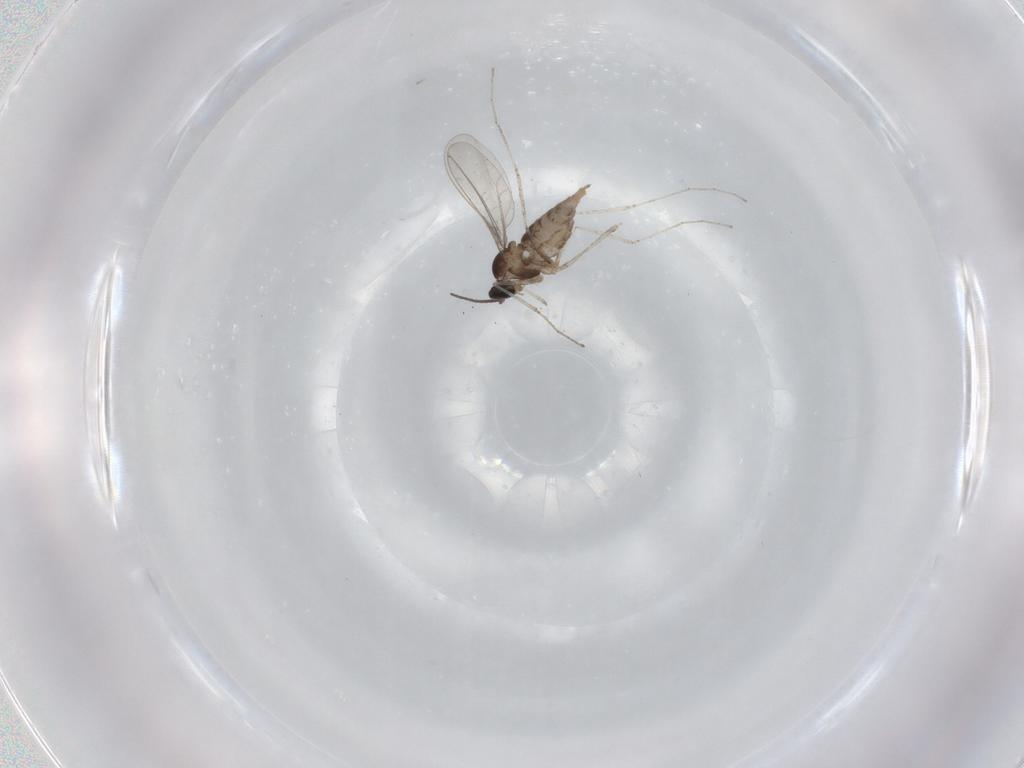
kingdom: Animalia
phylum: Arthropoda
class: Insecta
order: Diptera
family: Cecidomyiidae
